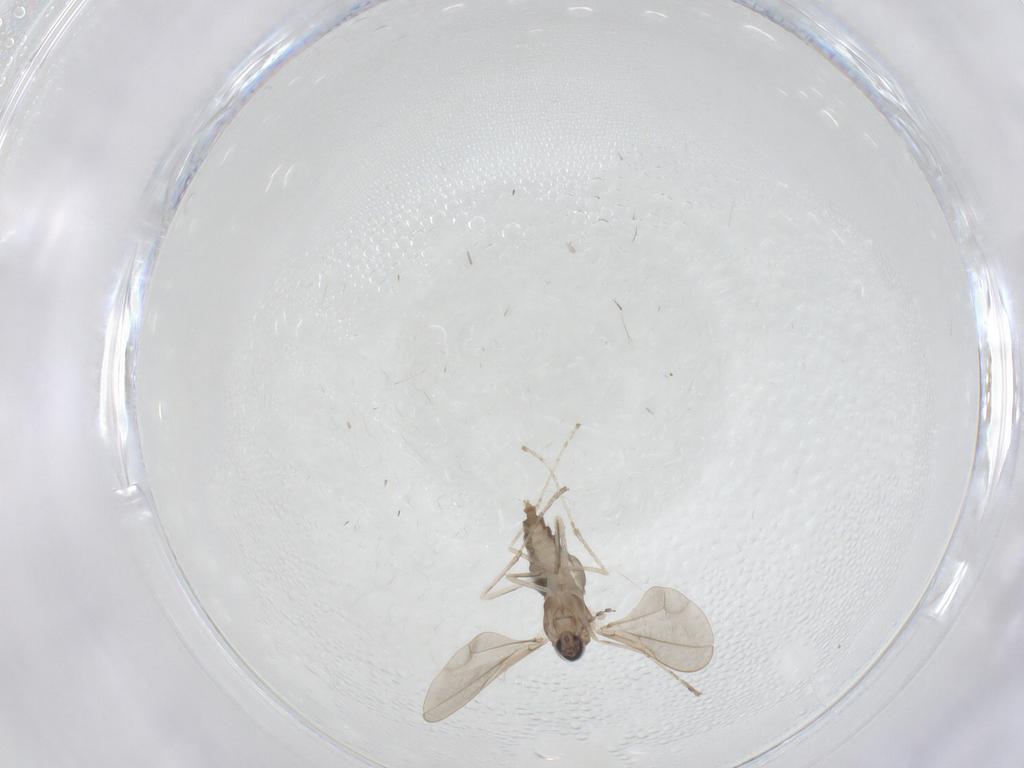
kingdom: Animalia
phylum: Arthropoda
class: Insecta
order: Diptera
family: Cecidomyiidae
